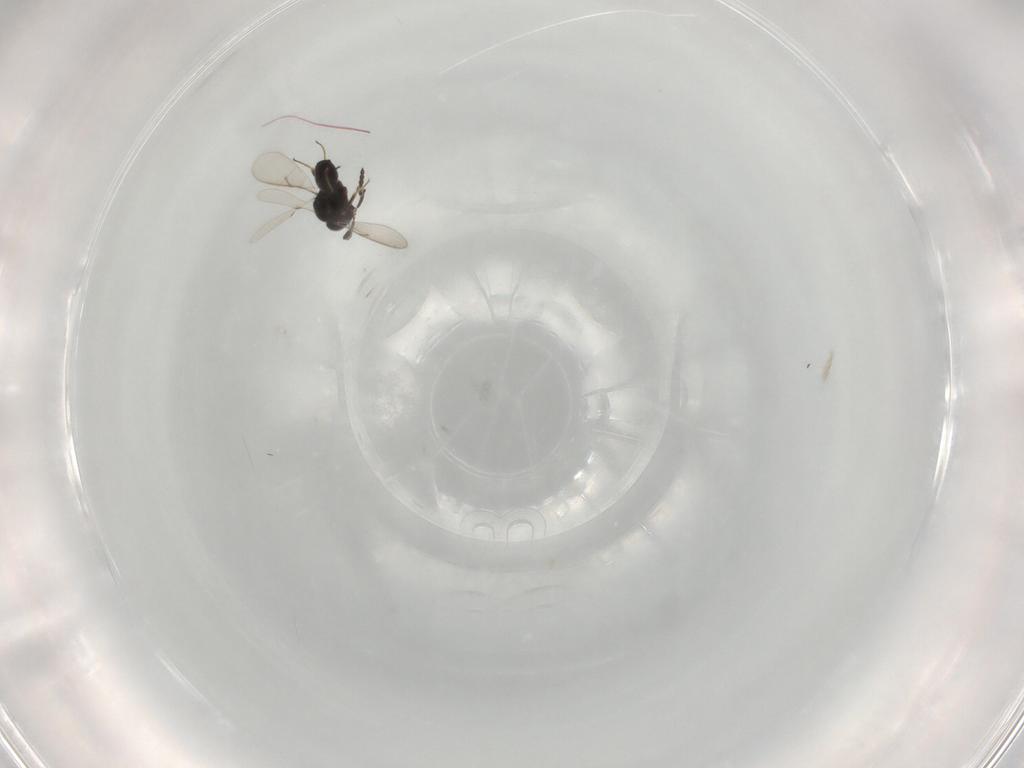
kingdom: Animalia
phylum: Arthropoda
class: Insecta
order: Hymenoptera
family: Scelionidae
